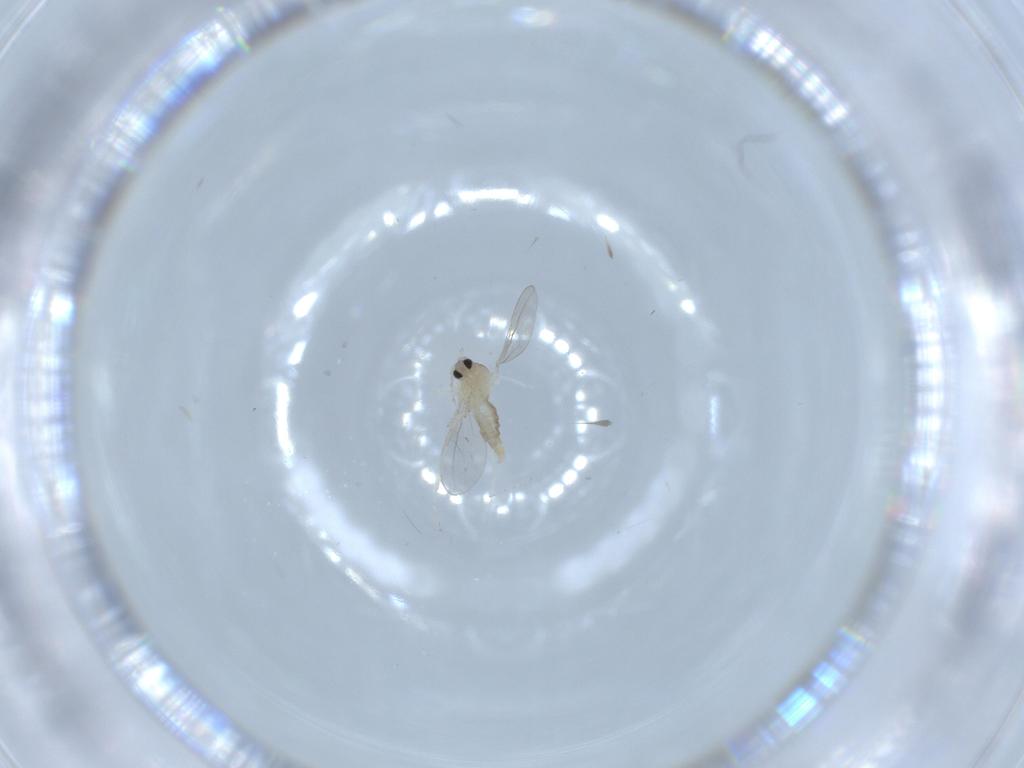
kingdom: Animalia
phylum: Arthropoda
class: Insecta
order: Diptera
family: Cecidomyiidae
